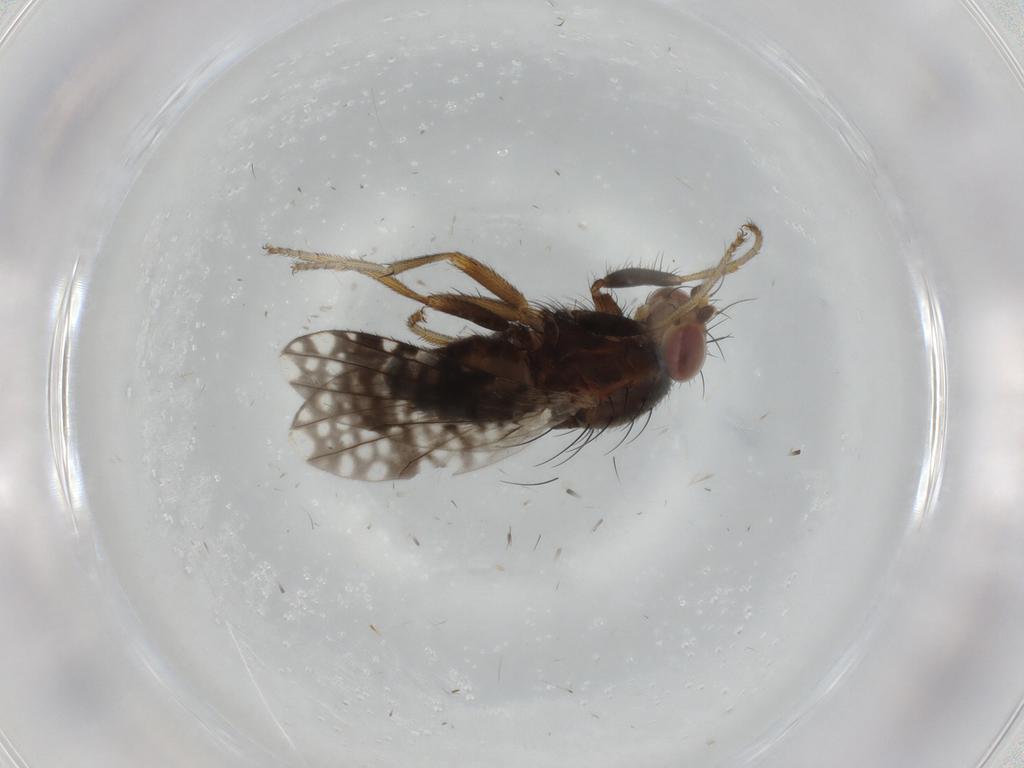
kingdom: Animalia
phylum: Arthropoda
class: Insecta
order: Diptera
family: Tephritidae
